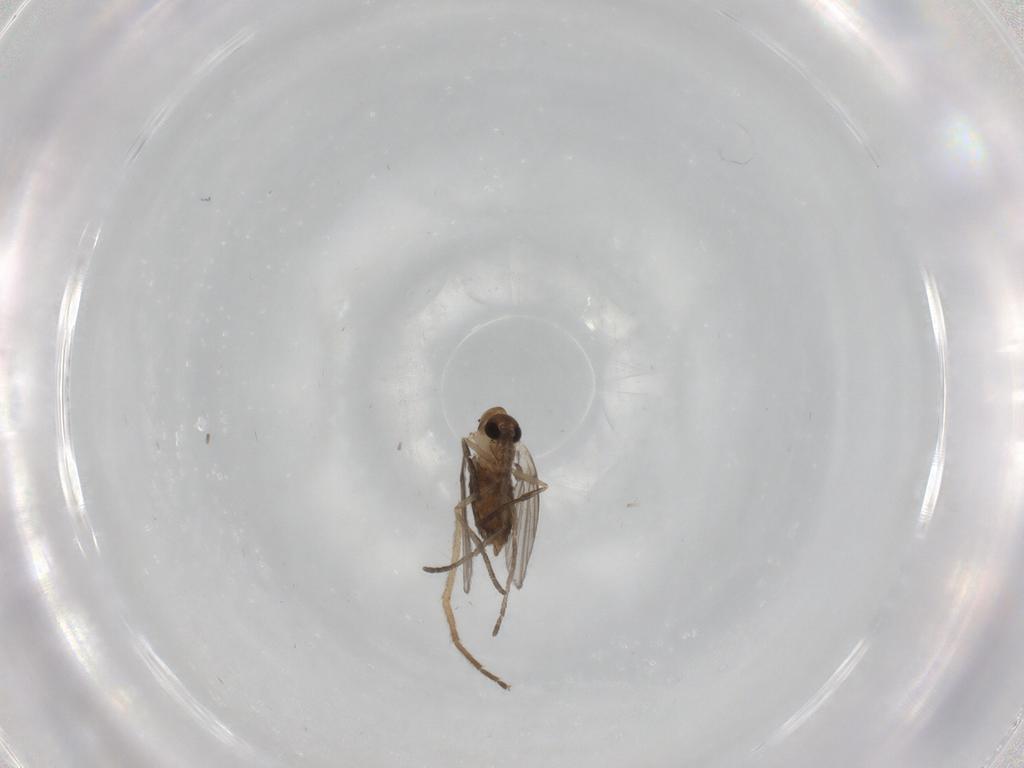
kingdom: Animalia
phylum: Arthropoda
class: Insecta
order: Diptera
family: Chironomidae
